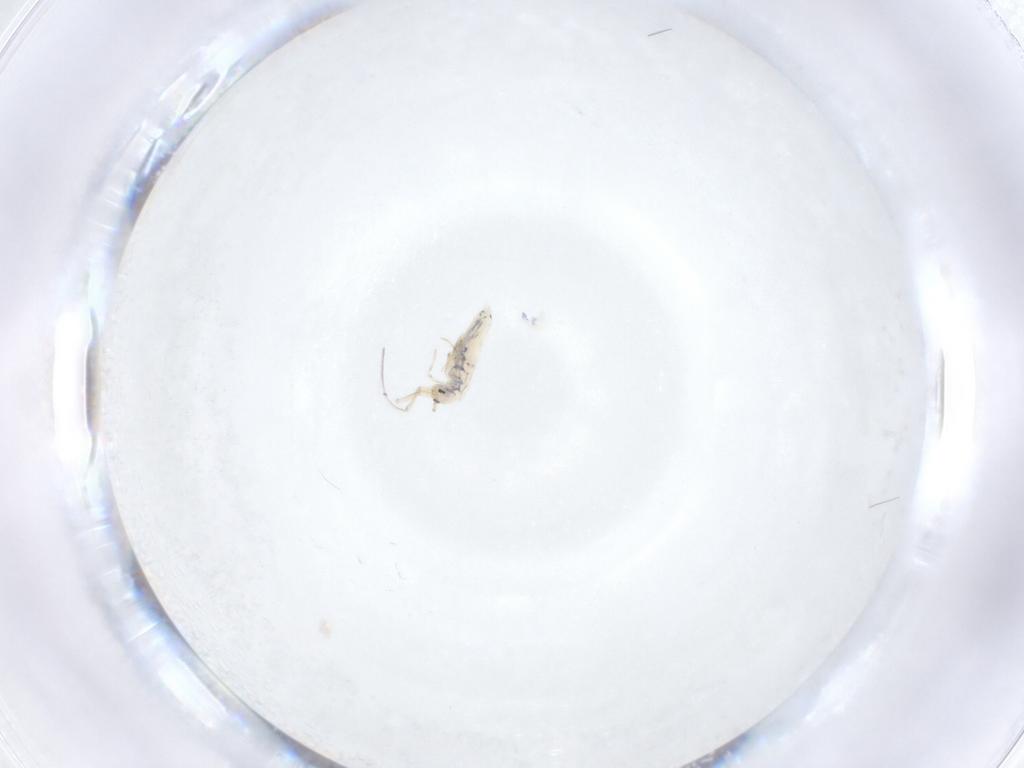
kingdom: Animalia
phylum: Arthropoda
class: Collembola
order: Entomobryomorpha
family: Entomobryidae
